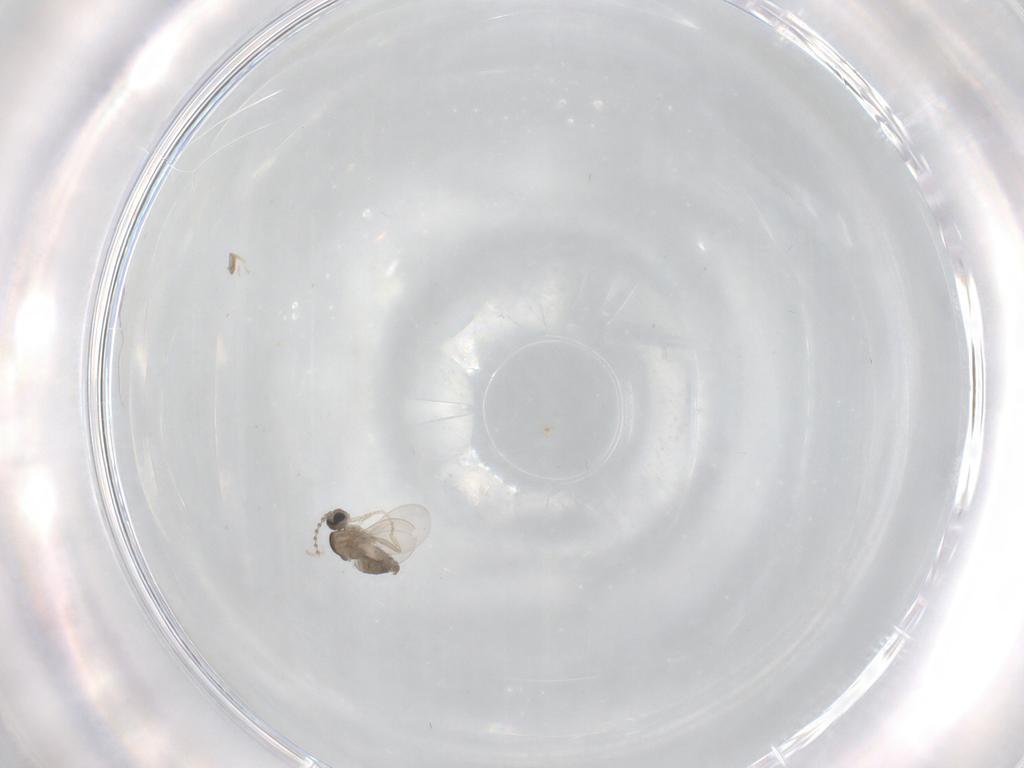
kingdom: Animalia
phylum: Arthropoda
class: Insecta
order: Diptera
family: Cecidomyiidae
